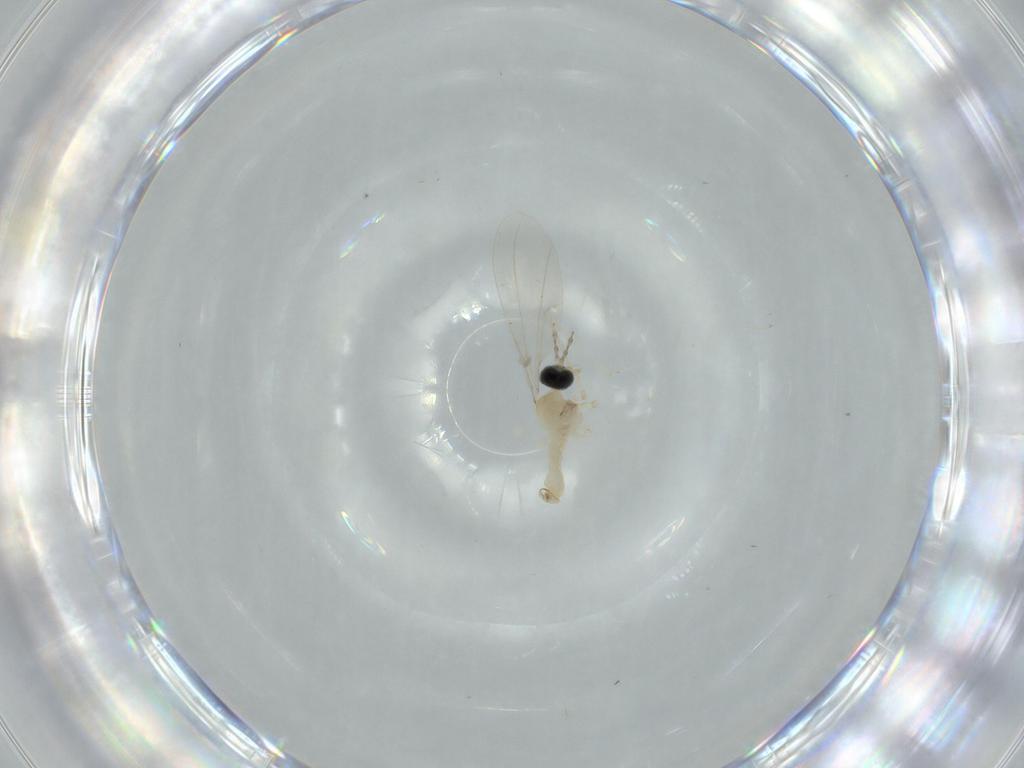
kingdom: Animalia
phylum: Arthropoda
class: Insecta
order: Diptera
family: Cecidomyiidae
